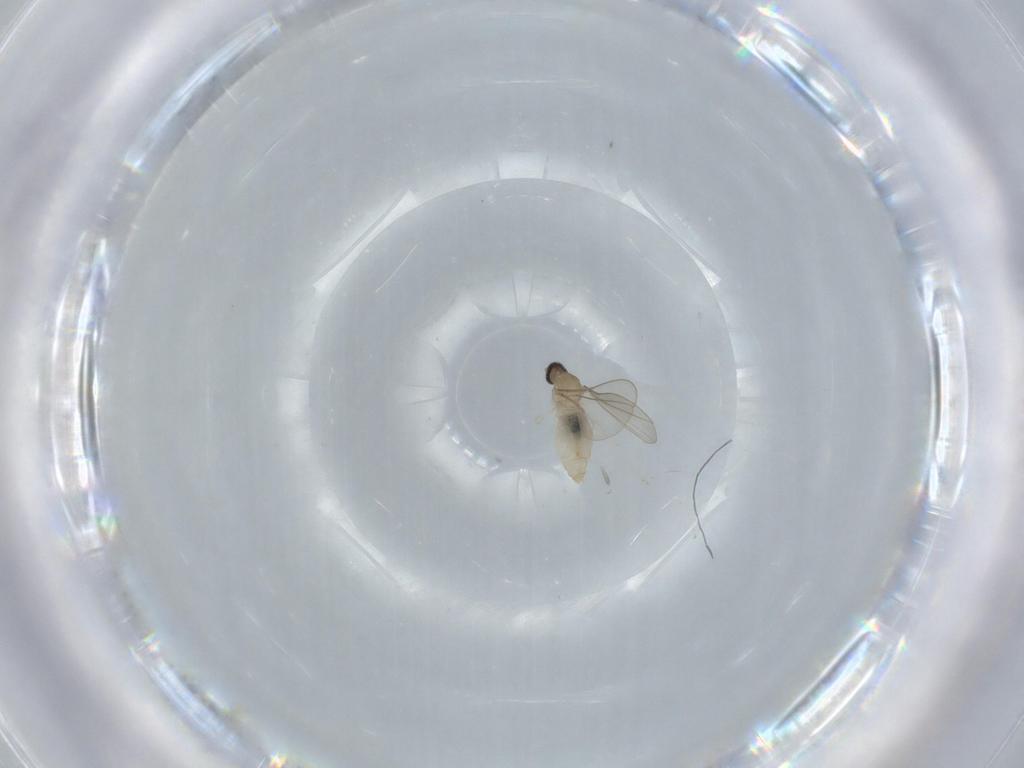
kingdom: Animalia
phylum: Arthropoda
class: Insecta
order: Diptera
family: Cecidomyiidae
